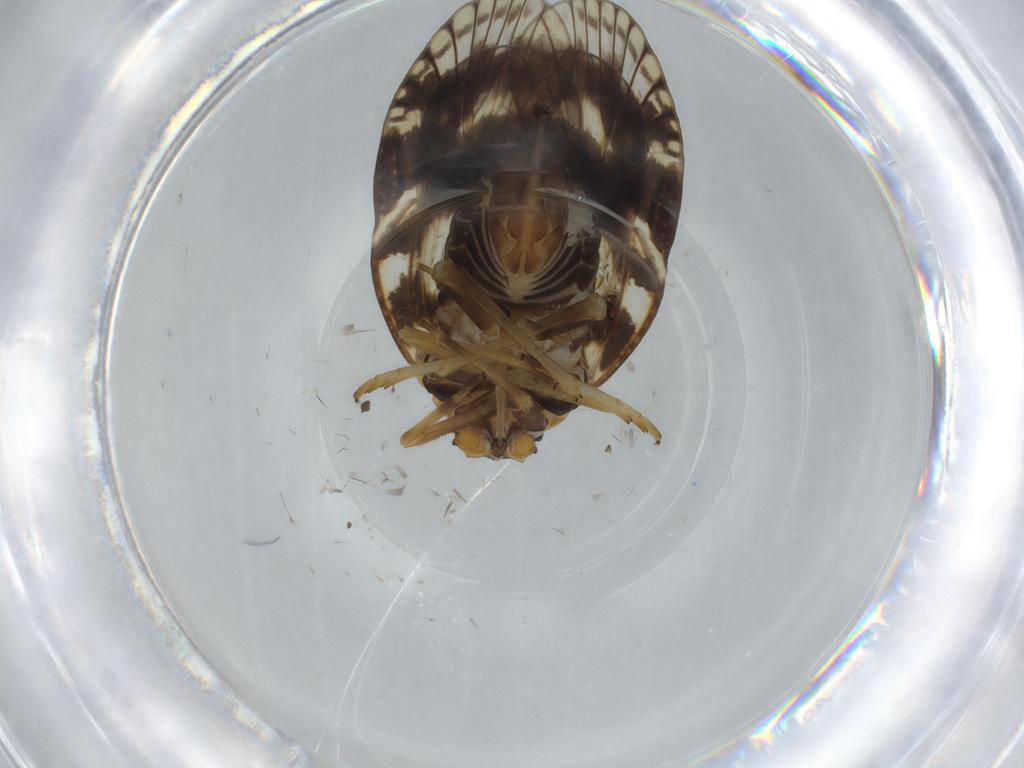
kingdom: Animalia
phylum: Arthropoda
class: Insecta
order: Hemiptera
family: Cixiidae
